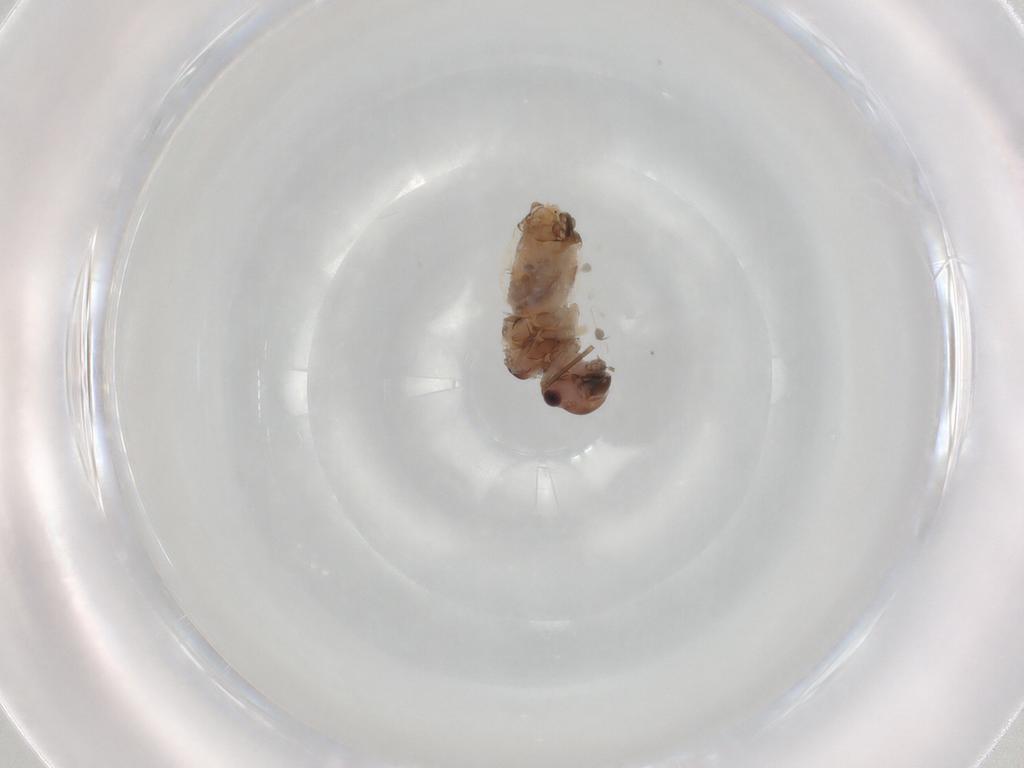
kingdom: Animalia
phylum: Arthropoda
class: Insecta
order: Psocodea
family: Peripsocidae
